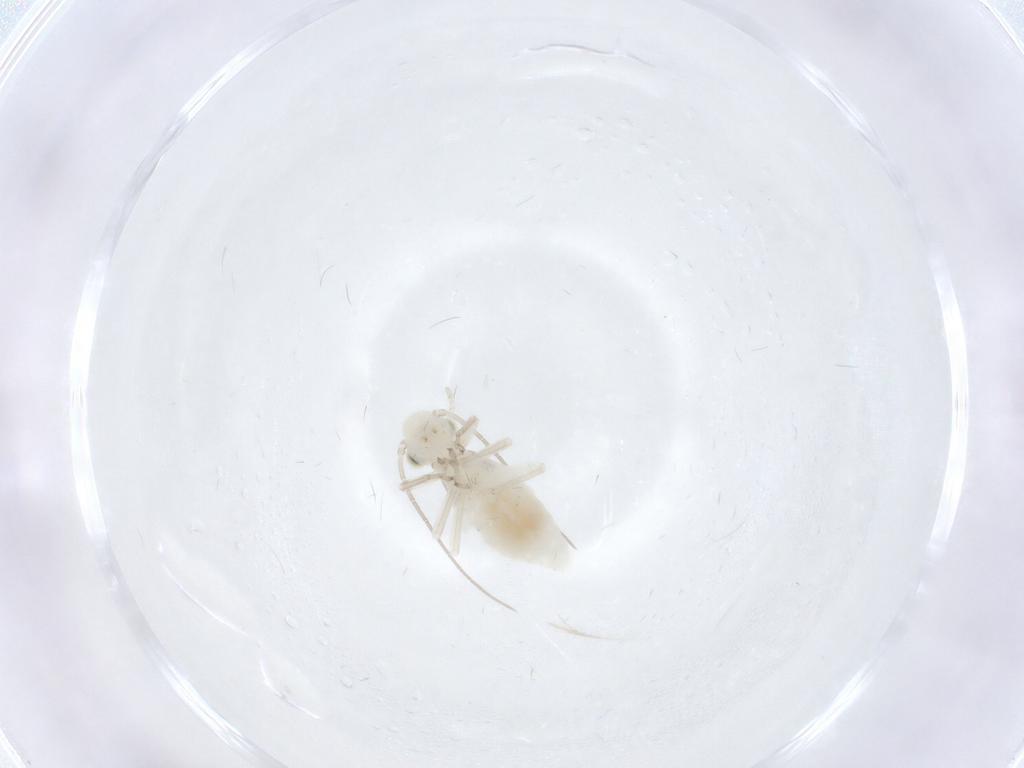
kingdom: Animalia
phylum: Arthropoda
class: Insecta
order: Psocodea
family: Caeciliusidae
